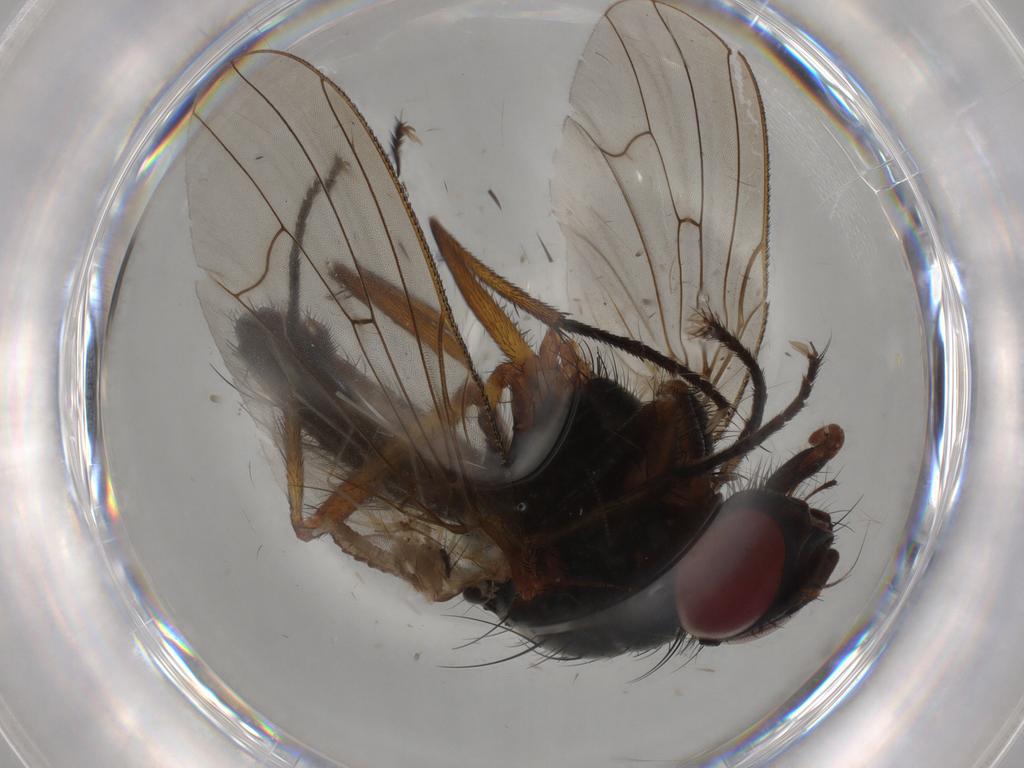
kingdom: Animalia
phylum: Arthropoda
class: Insecta
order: Diptera
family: Anthomyiidae
